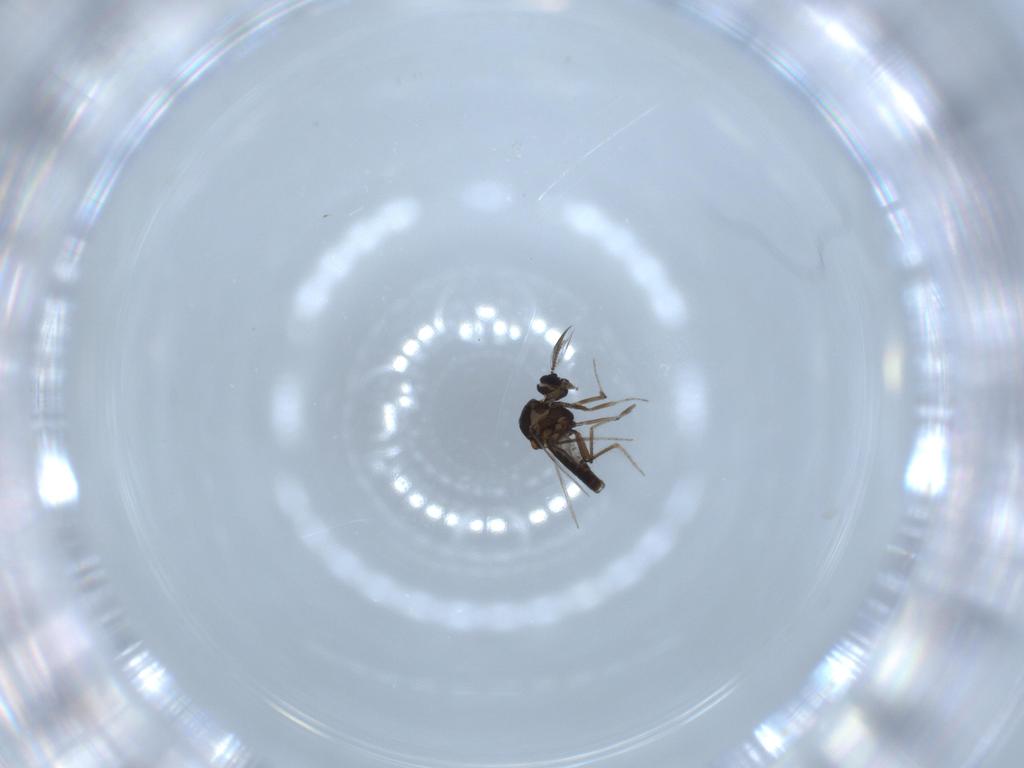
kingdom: Animalia
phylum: Arthropoda
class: Insecta
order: Diptera
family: Ceratopogonidae
